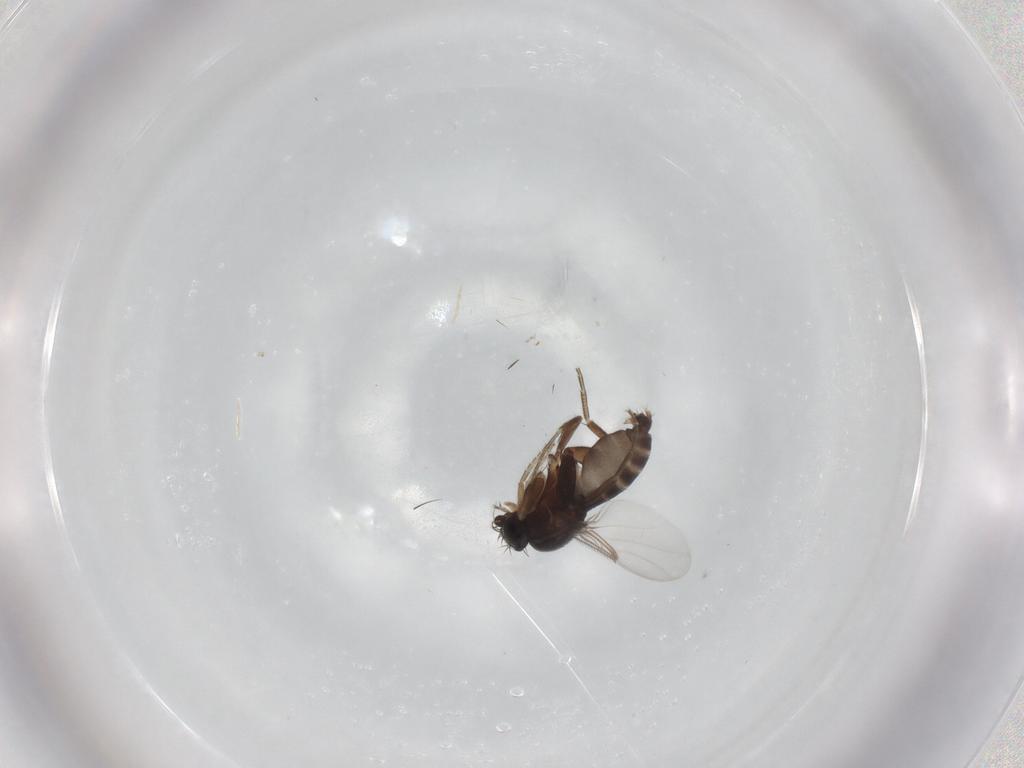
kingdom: Animalia
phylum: Arthropoda
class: Insecta
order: Diptera
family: Phoridae
